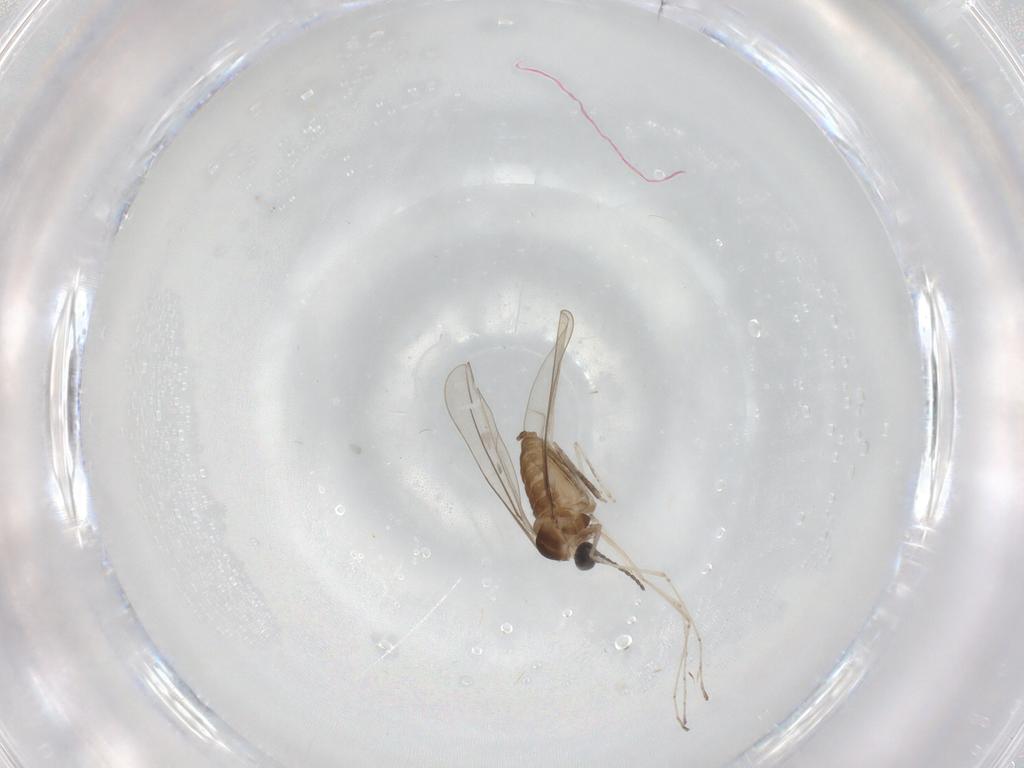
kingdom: Animalia
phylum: Arthropoda
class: Insecta
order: Diptera
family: Cecidomyiidae
